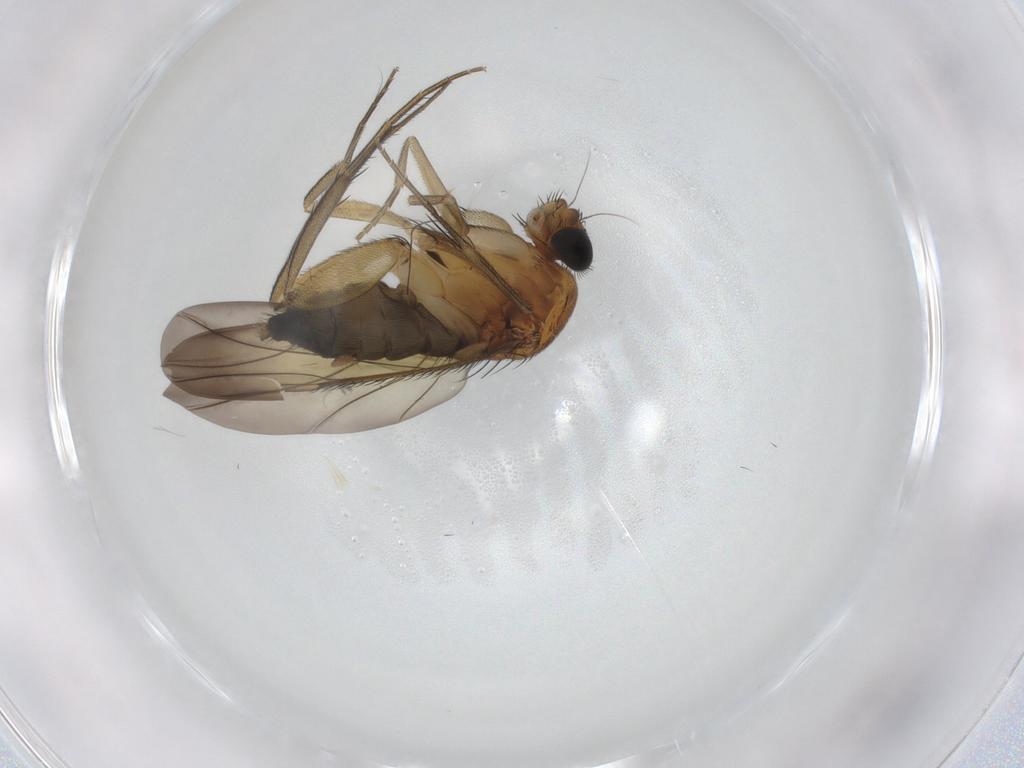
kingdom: Animalia
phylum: Arthropoda
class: Insecta
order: Diptera
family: Phoridae
